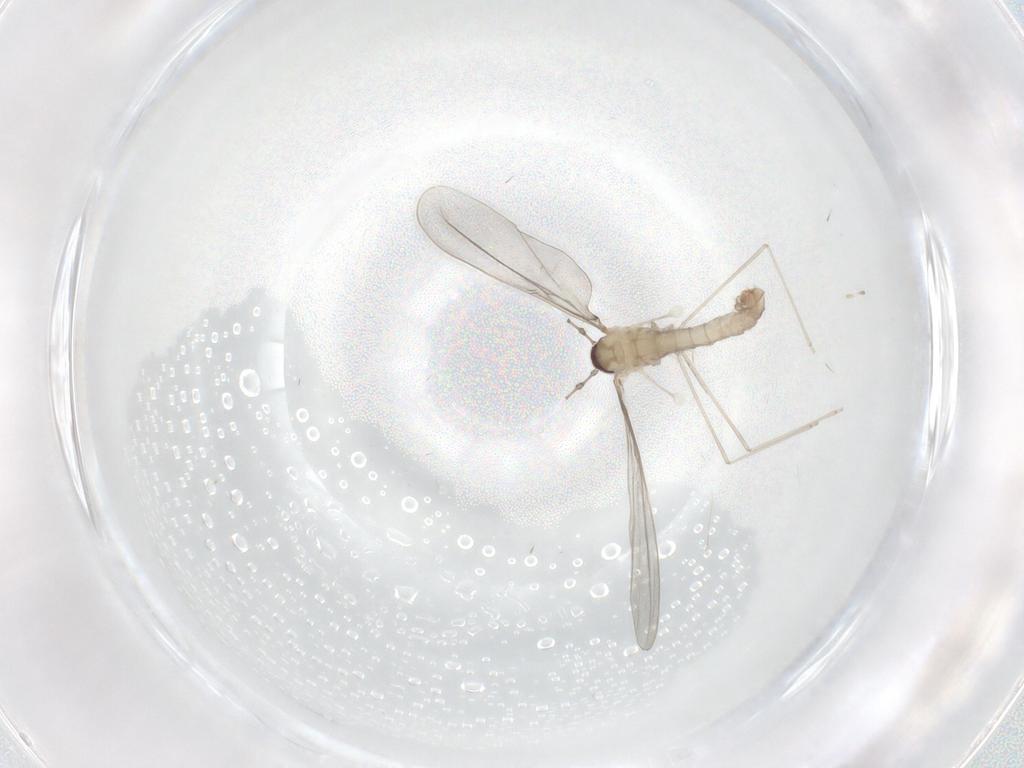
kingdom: Animalia
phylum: Arthropoda
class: Insecta
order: Diptera
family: Cecidomyiidae
